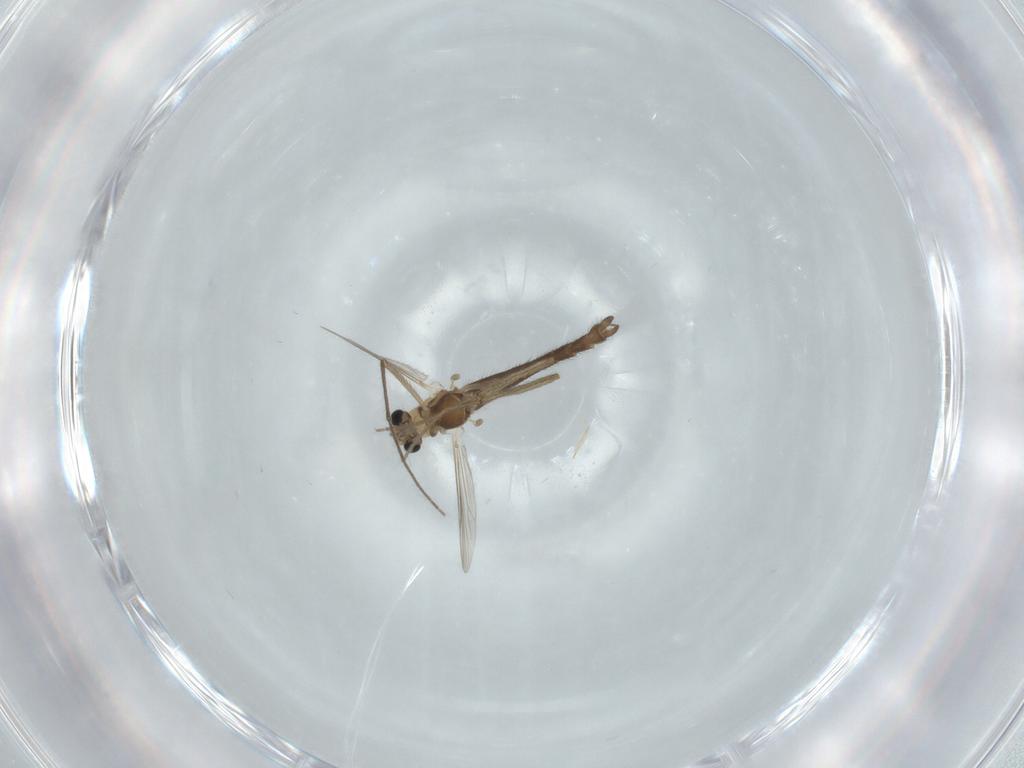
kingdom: Animalia
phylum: Arthropoda
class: Insecta
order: Diptera
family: Chironomidae
